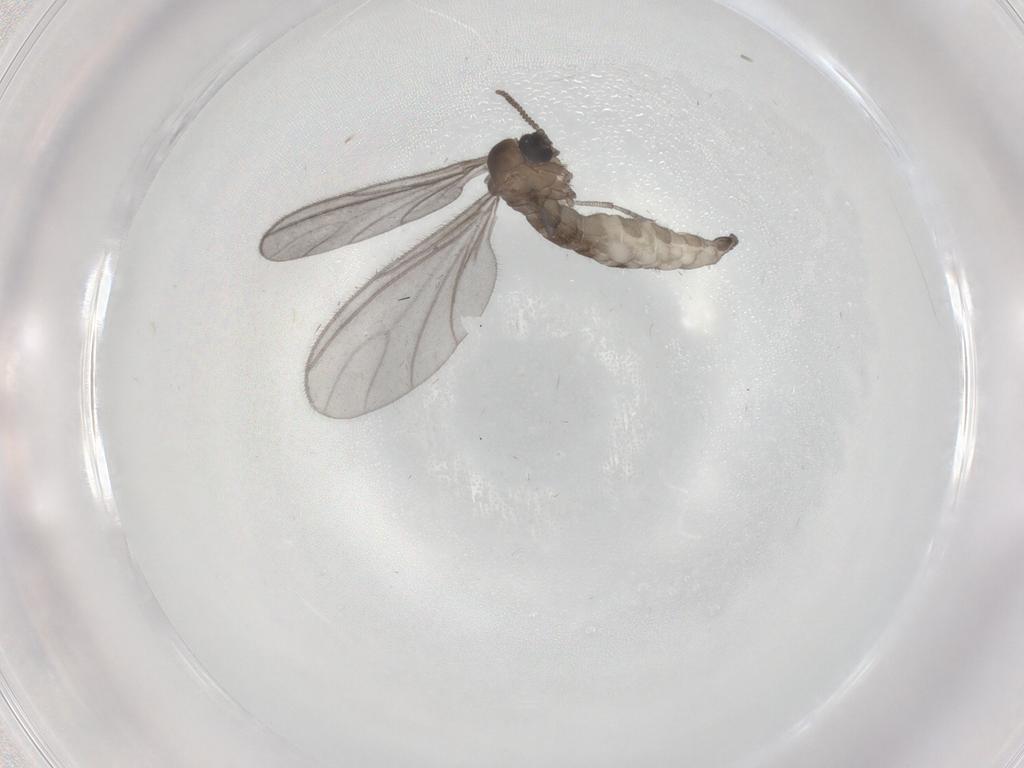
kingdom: Animalia
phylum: Arthropoda
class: Insecta
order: Diptera
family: Sciaridae
